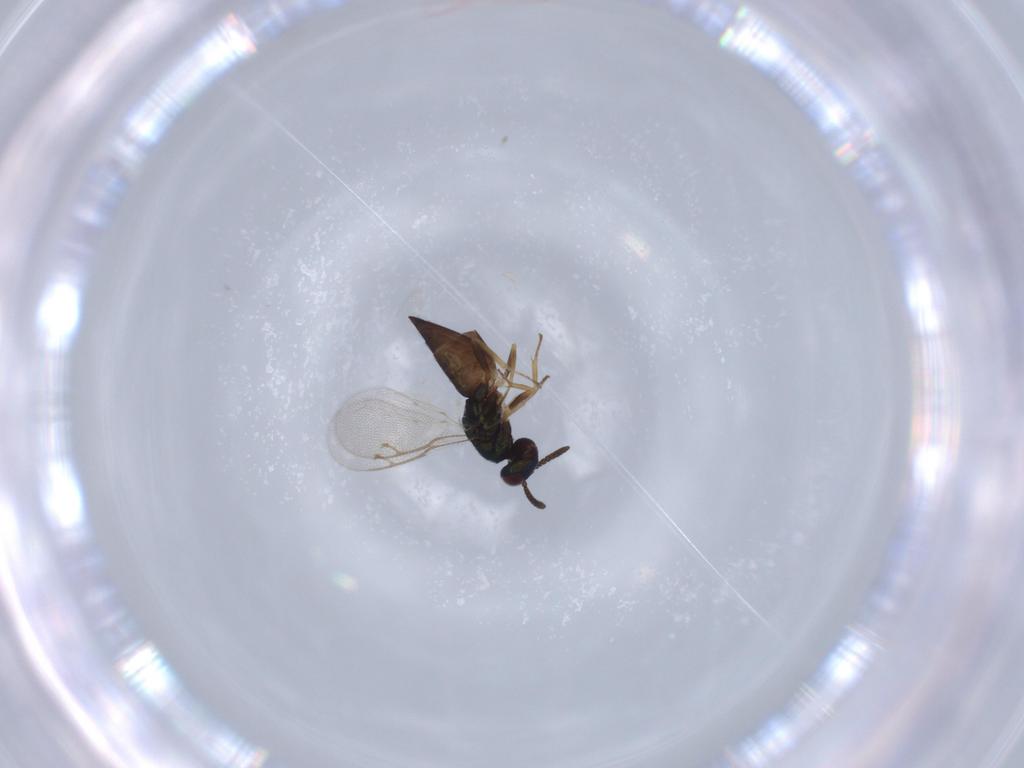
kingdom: Animalia
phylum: Arthropoda
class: Insecta
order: Hymenoptera
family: Pteromalidae
